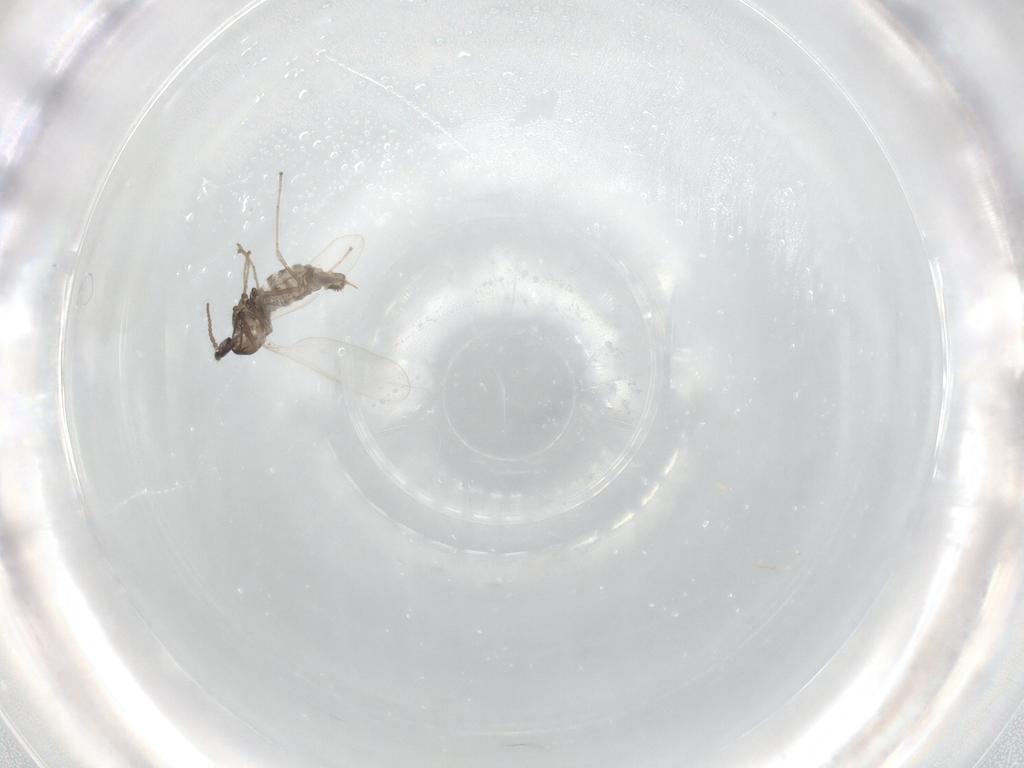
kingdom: Animalia
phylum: Arthropoda
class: Insecta
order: Diptera
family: Cecidomyiidae
